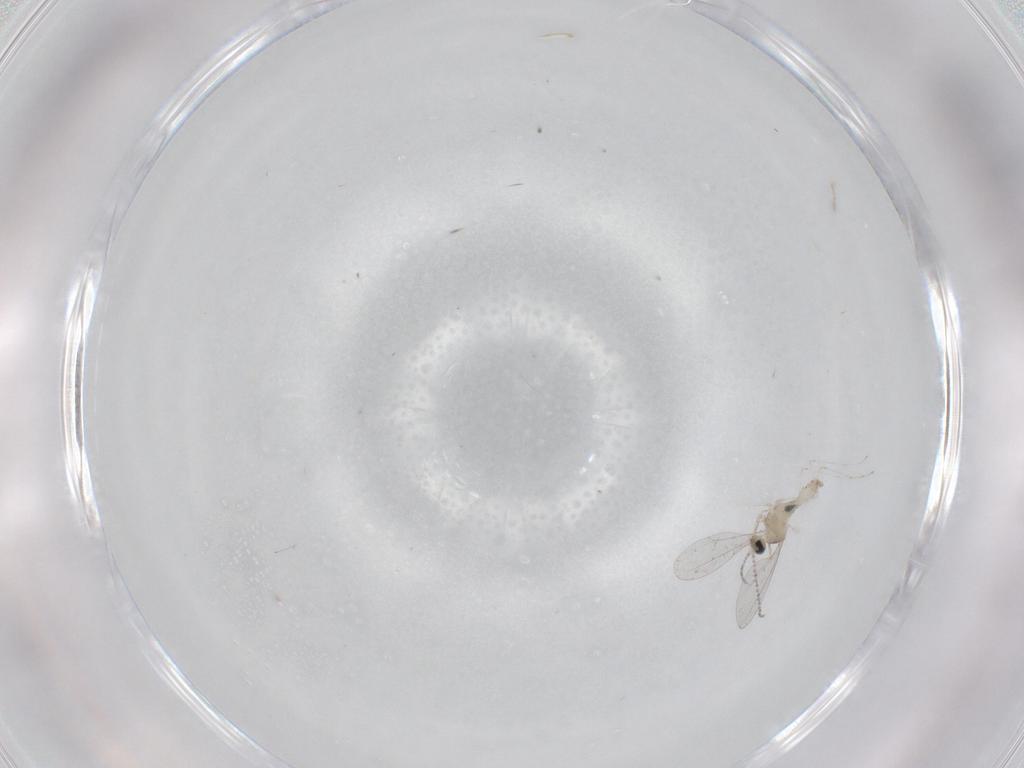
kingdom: Animalia
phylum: Arthropoda
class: Insecta
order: Diptera
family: Cecidomyiidae
